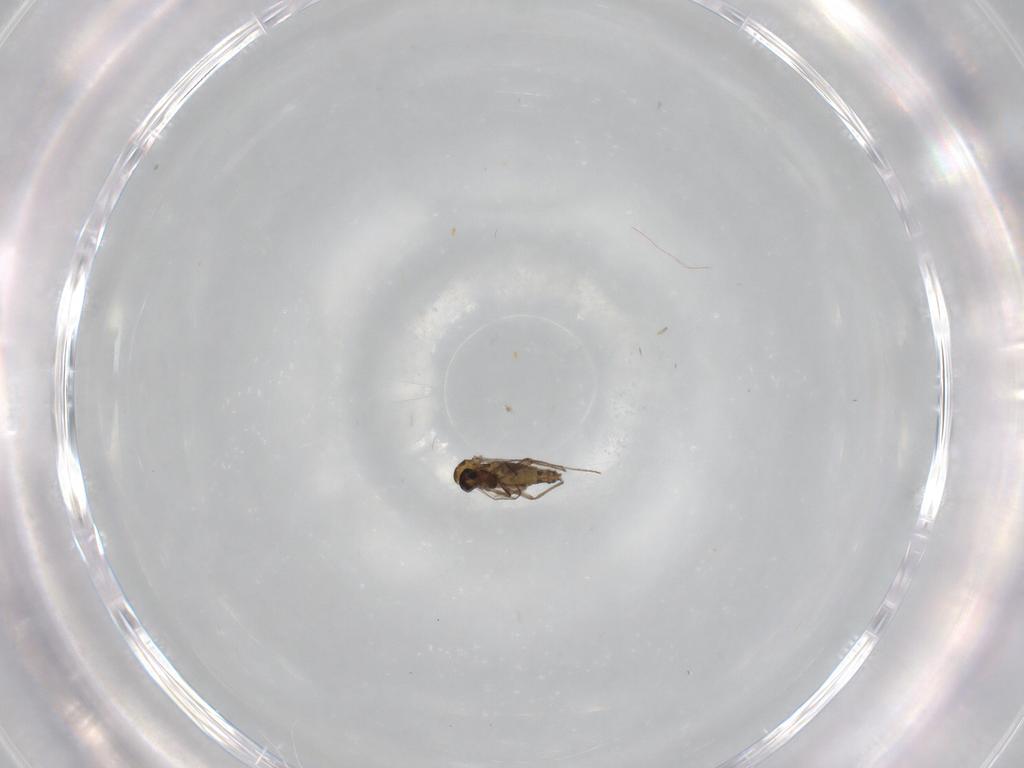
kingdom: Animalia
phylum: Arthropoda
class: Insecta
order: Diptera
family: Chironomidae
